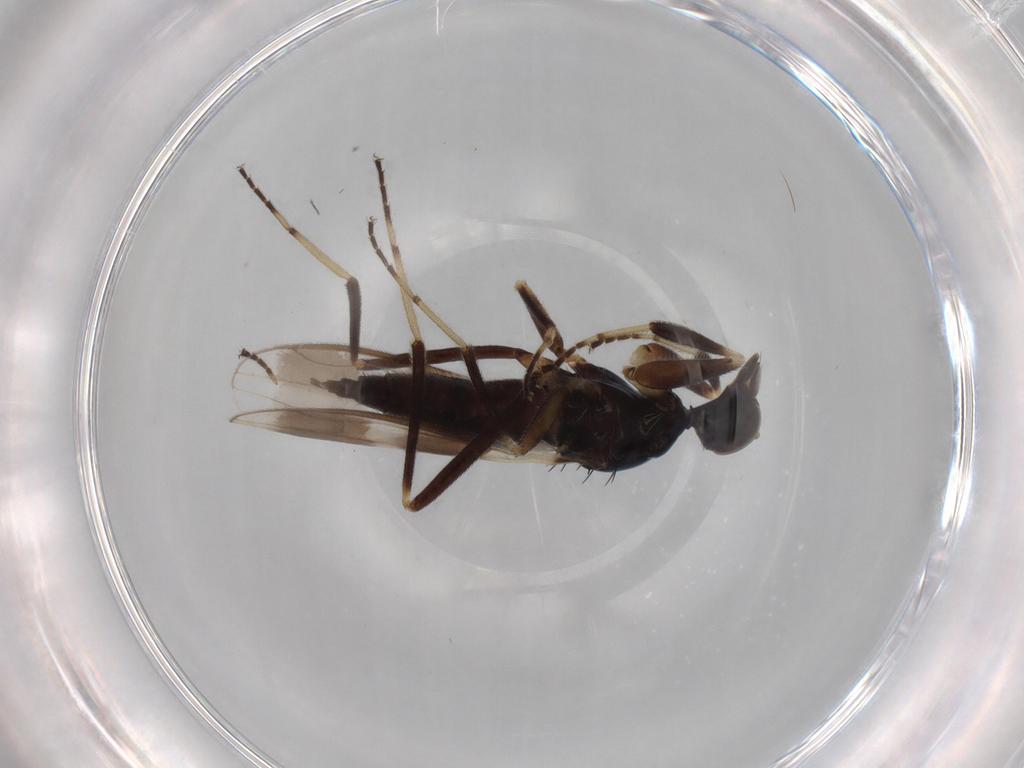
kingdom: Animalia
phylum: Arthropoda
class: Insecta
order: Diptera
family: Hybotidae
